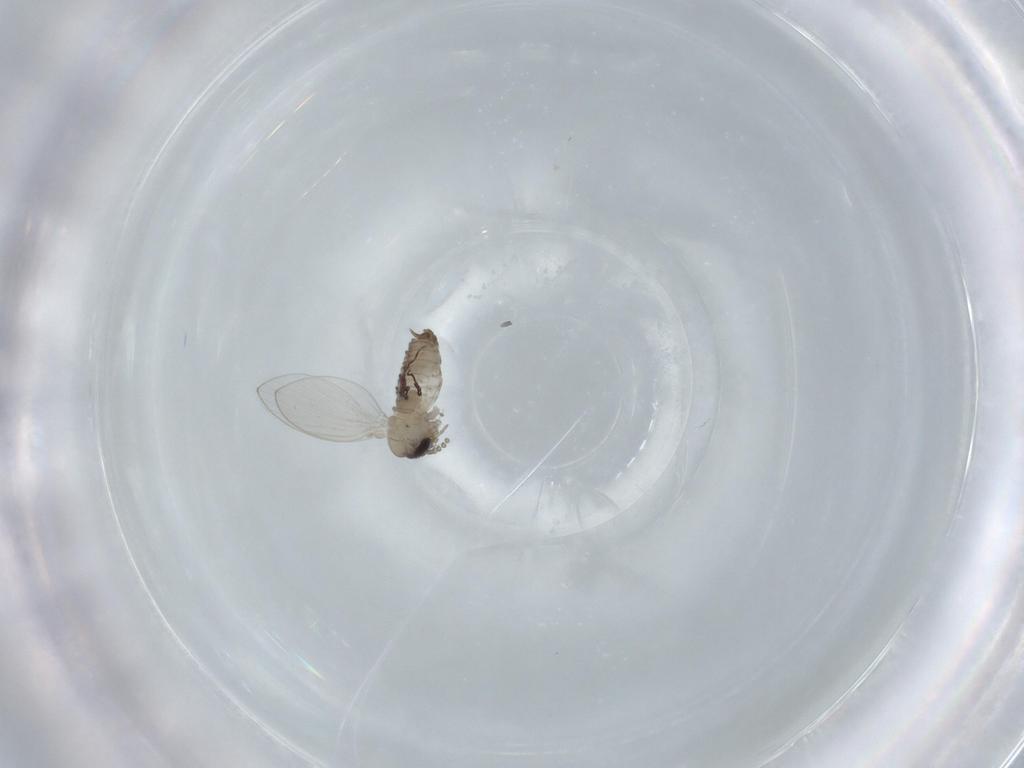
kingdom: Animalia
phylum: Arthropoda
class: Insecta
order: Diptera
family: Psychodidae
